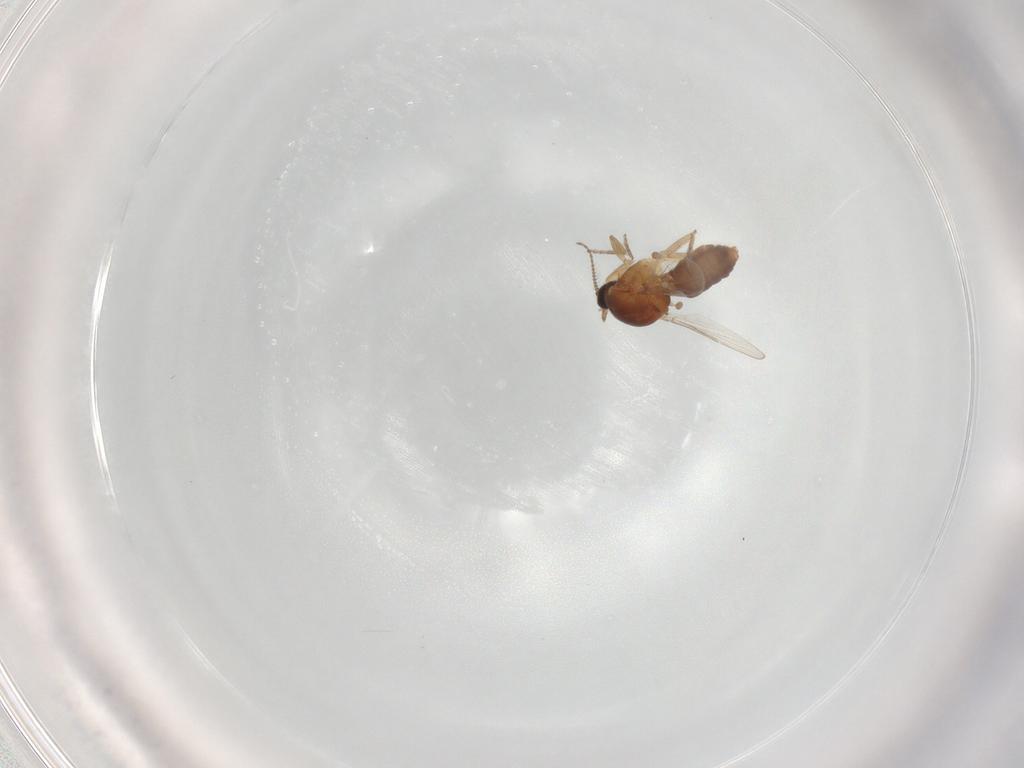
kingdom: Animalia
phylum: Arthropoda
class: Insecta
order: Diptera
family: Ceratopogonidae
